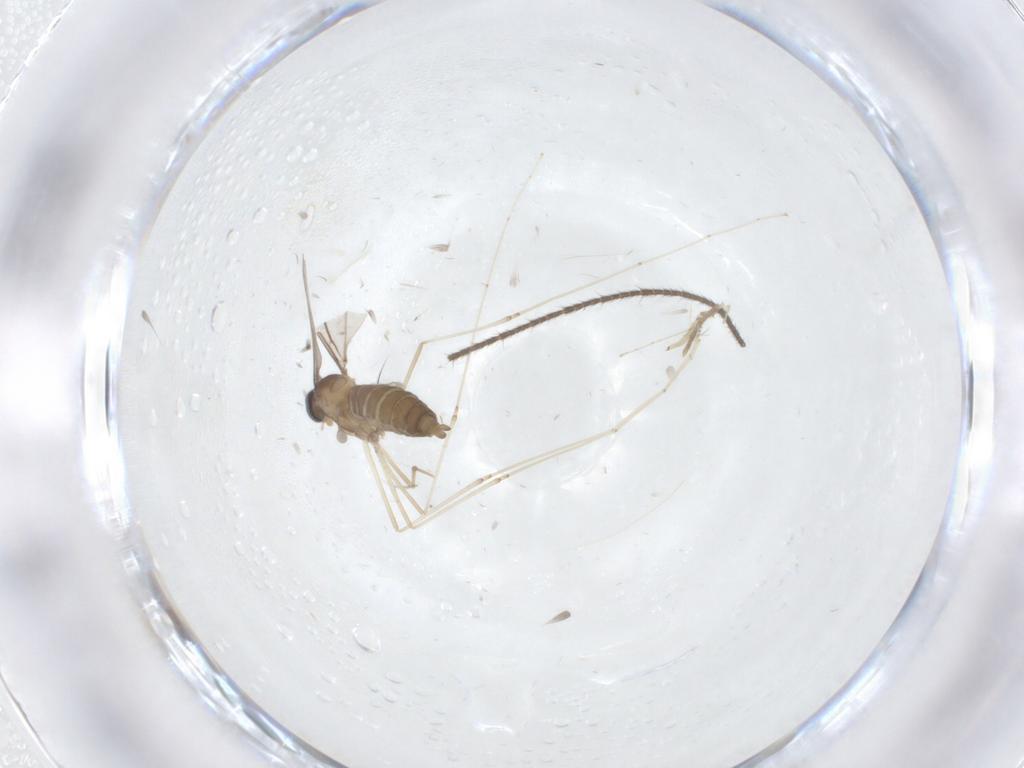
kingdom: Animalia
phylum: Arthropoda
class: Insecta
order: Diptera
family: Cecidomyiidae
